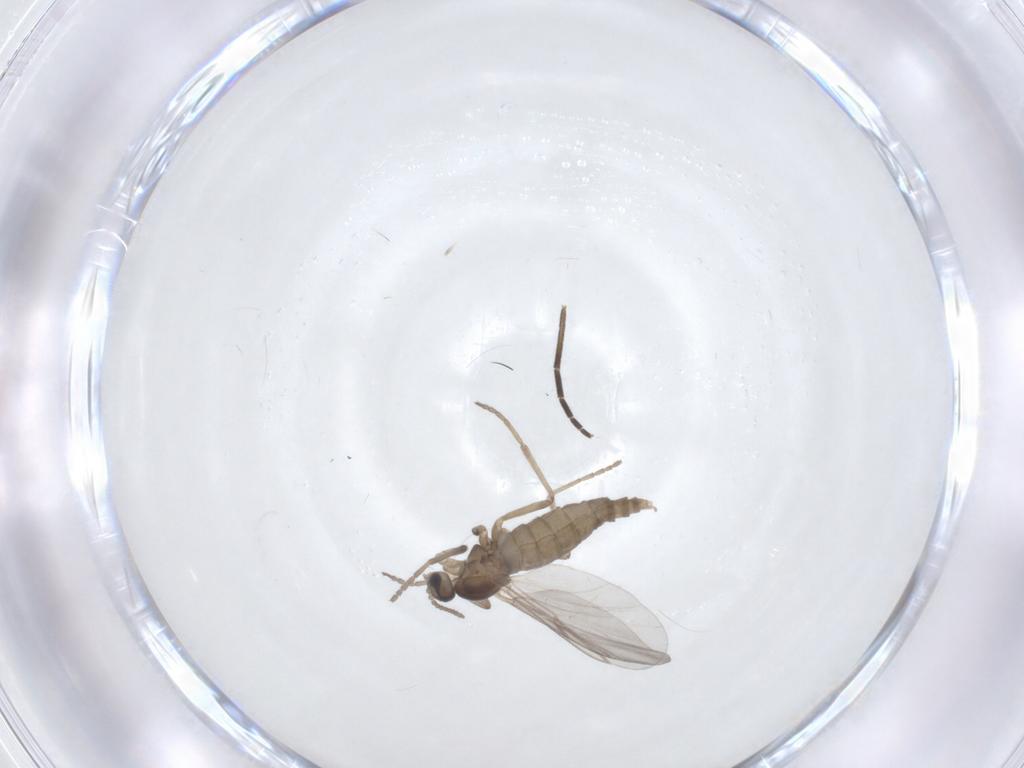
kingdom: Animalia
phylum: Arthropoda
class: Insecta
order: Diptera
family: Cecidomyiidae
